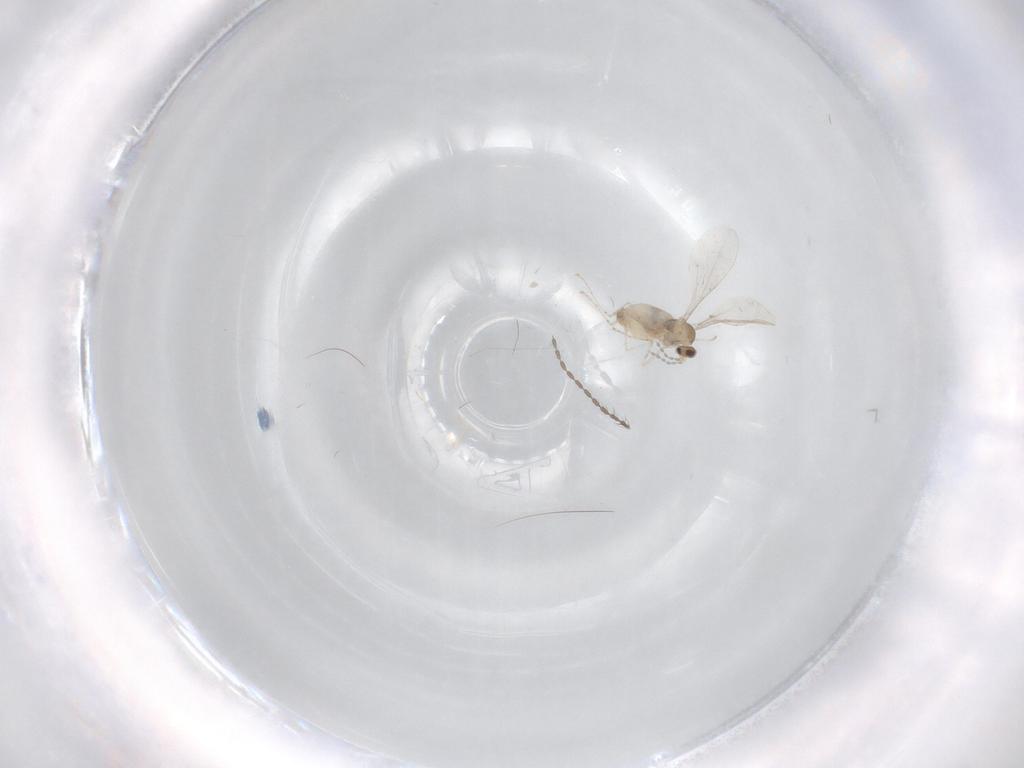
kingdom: Animalia
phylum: Arthropoda
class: Insecta
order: Diptera
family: Cecidomyiidae
